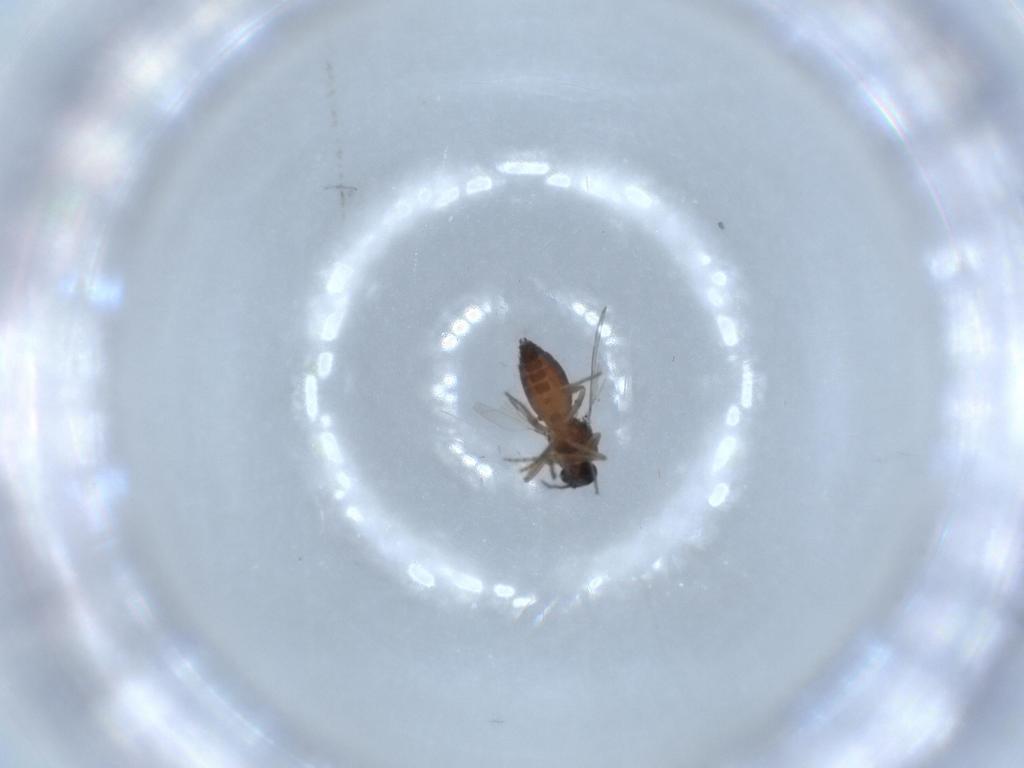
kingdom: Animalia
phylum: Arthropoda
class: Insecta
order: Diptera
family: Ceratopogonidae
